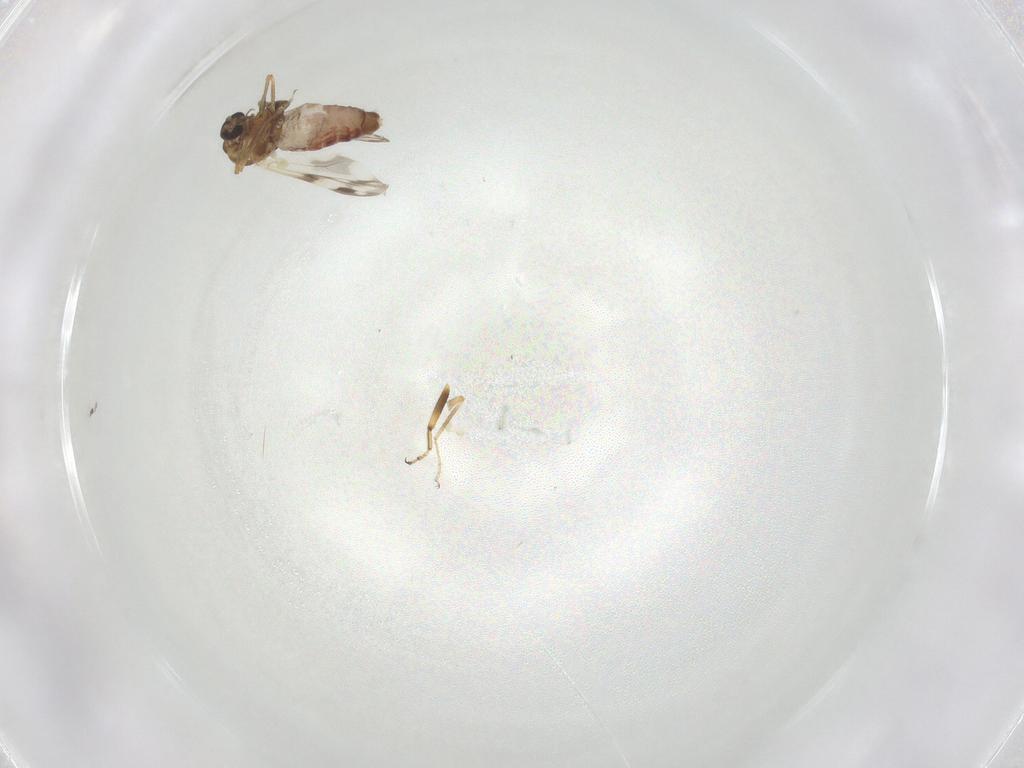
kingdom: Animalia
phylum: Arthropoda
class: Insecta
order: Diptera
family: Ceratopogonidae
